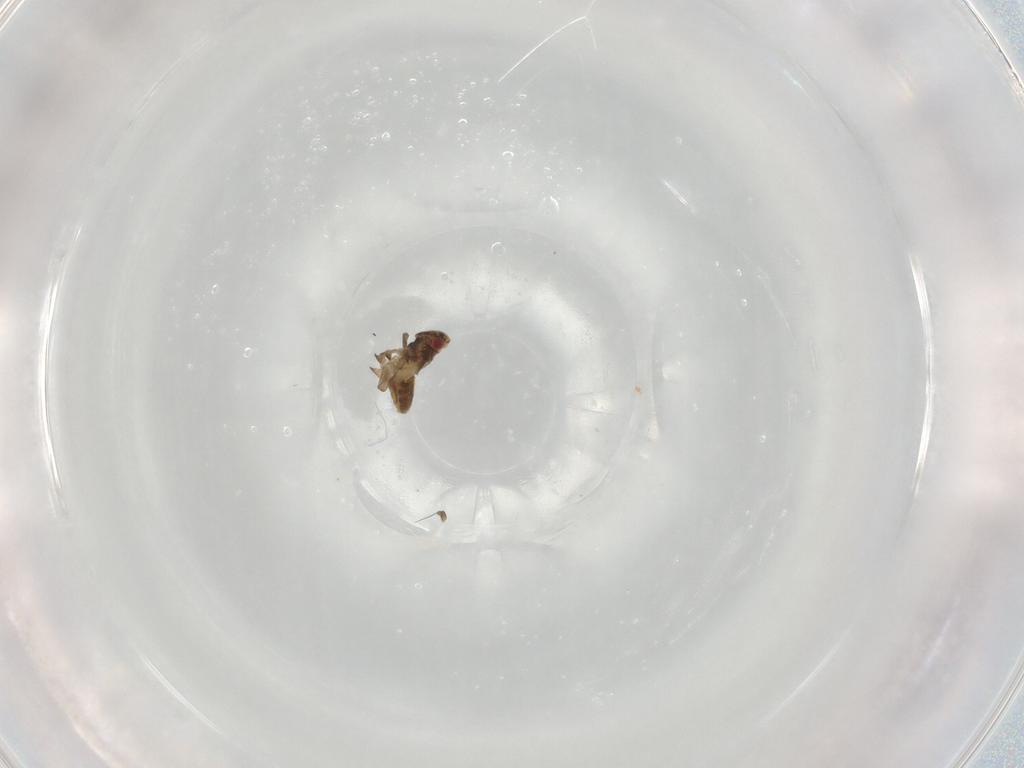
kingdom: Animalia
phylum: Arthropoda
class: Insecta
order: Hemiptera
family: Delphacidae
